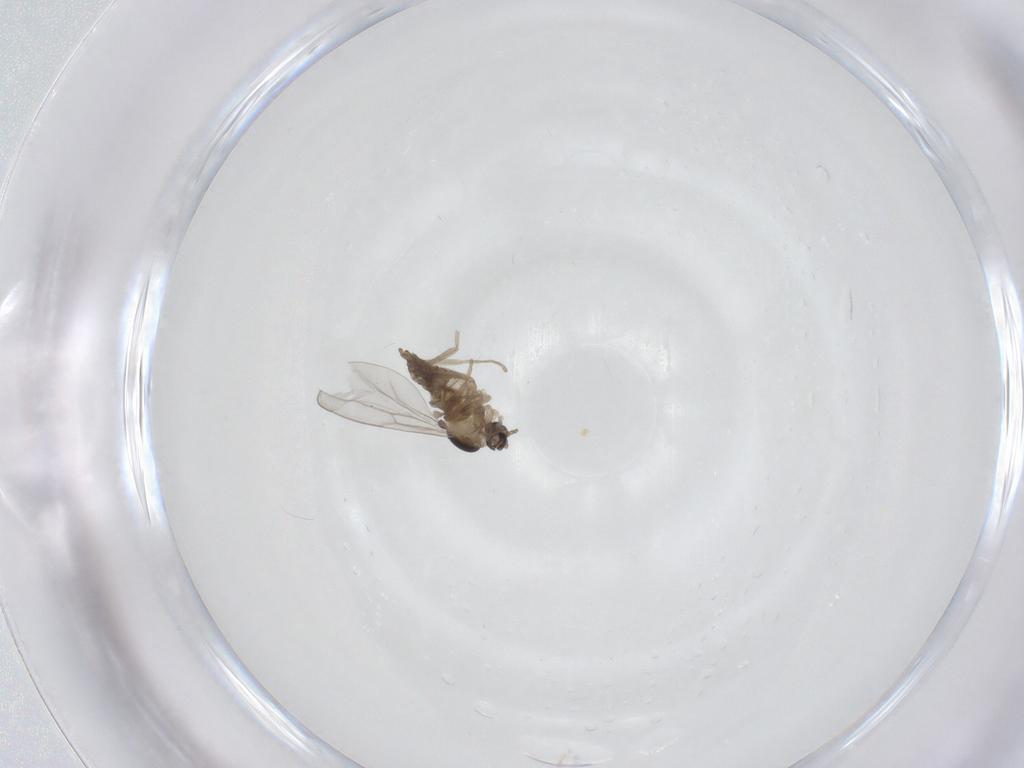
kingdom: Animalia
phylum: Arthropoda
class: Insecta
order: Diptera
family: Cecidomyiidae
